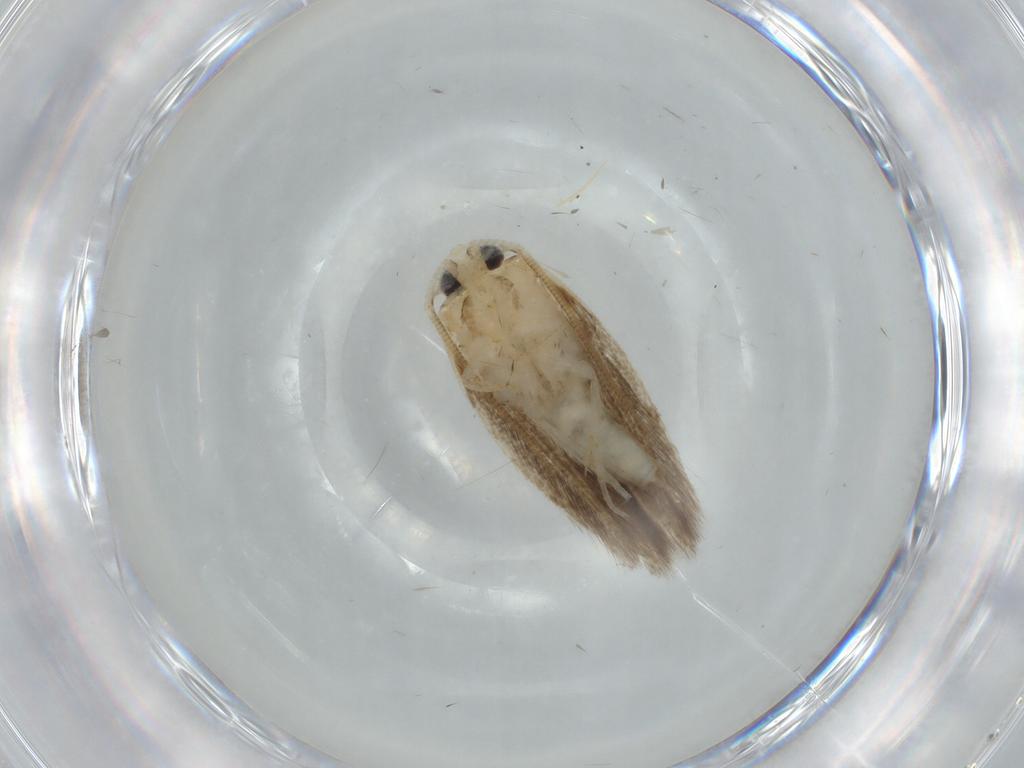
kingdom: Animalia
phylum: Arthropoda
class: Insecta
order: Lepidoptera
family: Opostegidae
